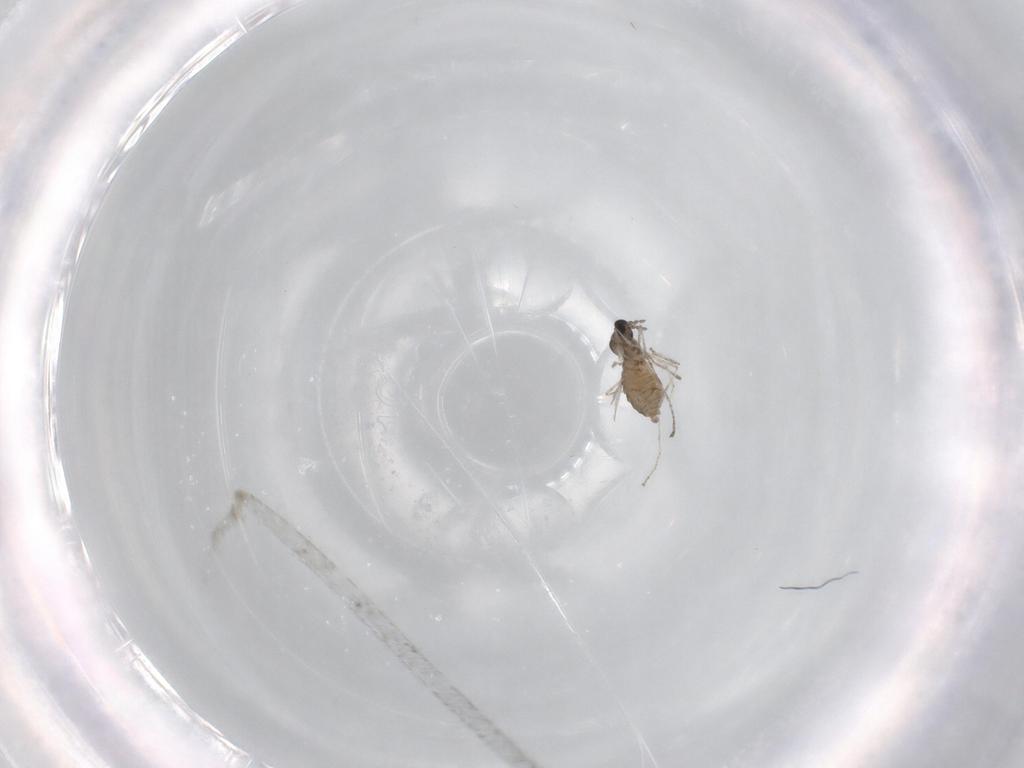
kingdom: Animalia
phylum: Arthropoda
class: Insecta
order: Diptera
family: Cecidomyiidae
